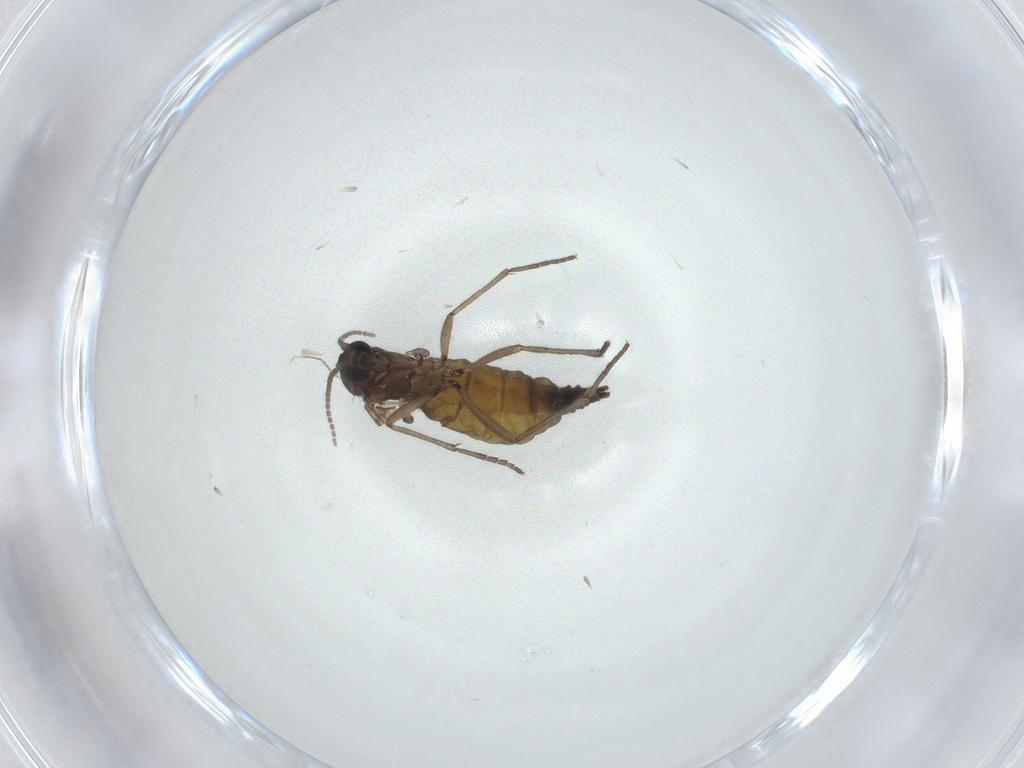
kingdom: Animalia
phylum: Arthropoda
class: Insecta
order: Diptera
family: Sciaridae
